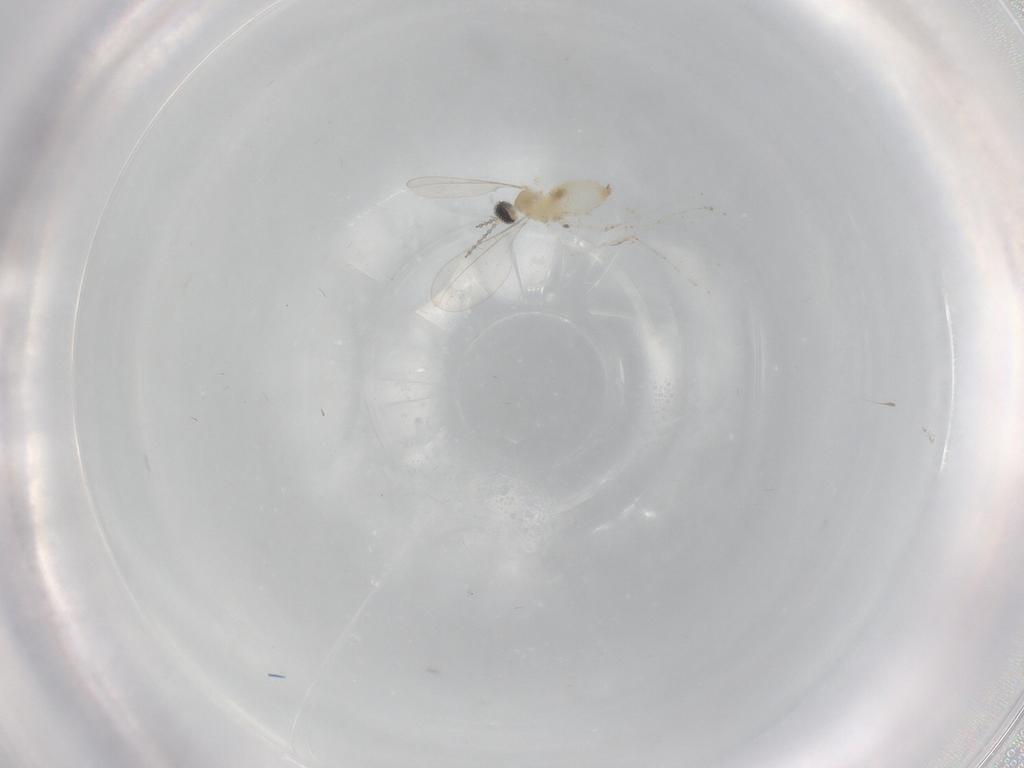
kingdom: Animalia
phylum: Arthropoda
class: Insecta
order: Diptera
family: Cecidomyiidae
